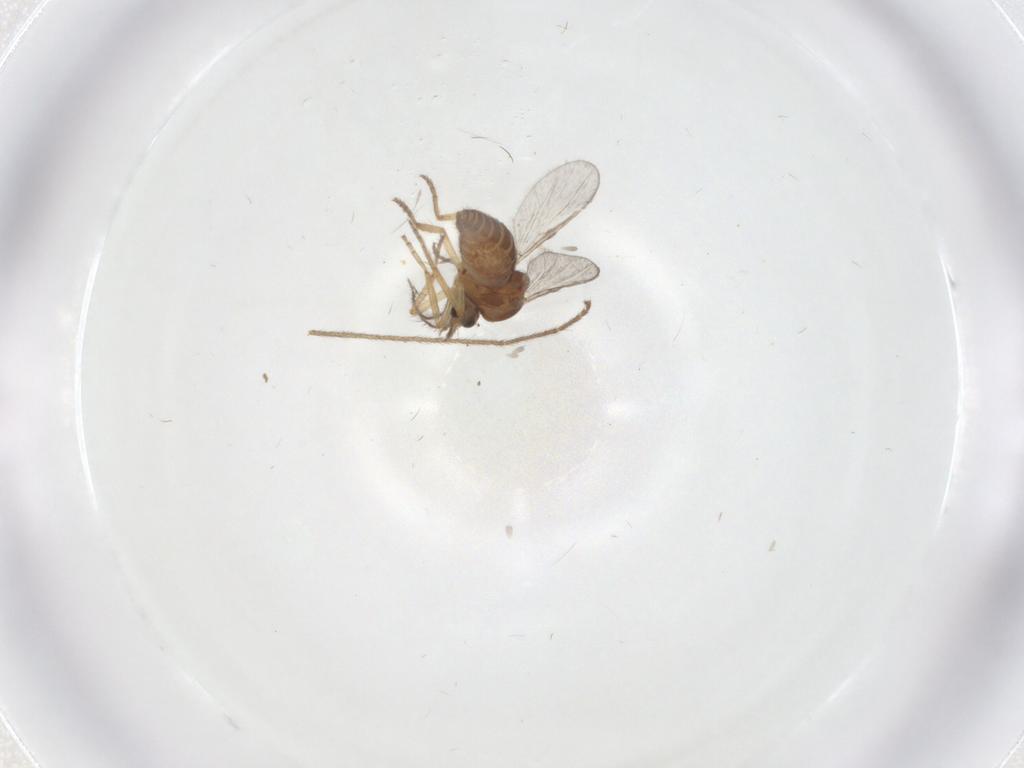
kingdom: Animalia
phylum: Arthropoda
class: Insecta
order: Diptera
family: Ceratopogonidae
